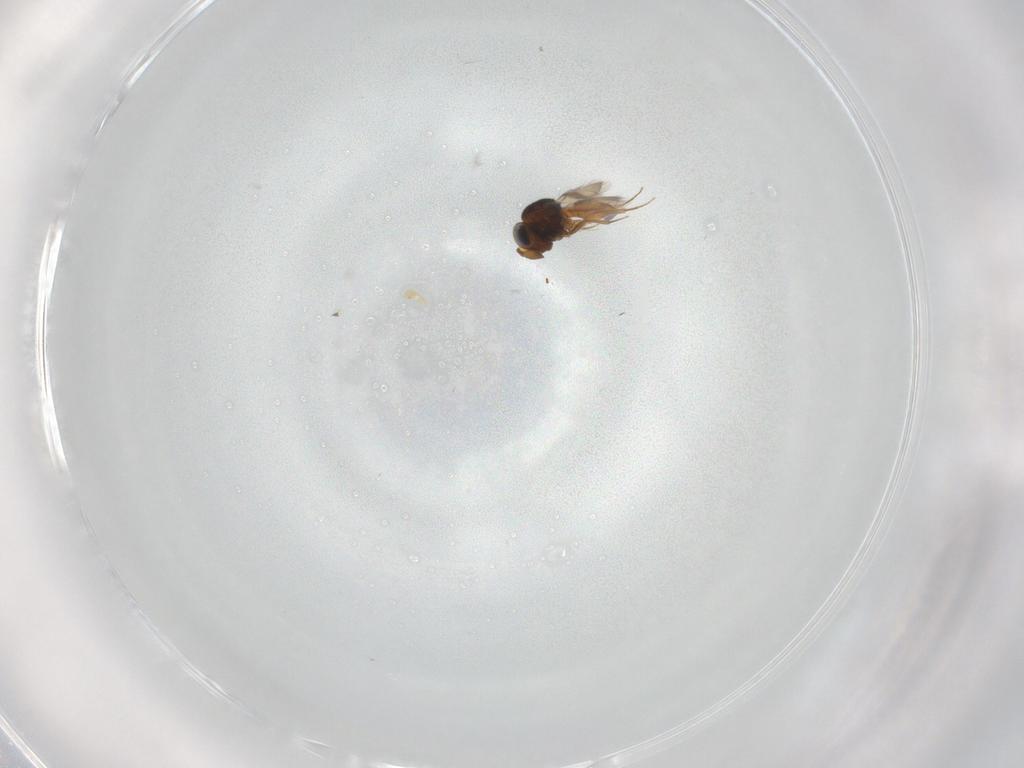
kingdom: Animalia
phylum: Arthropoda
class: Insecta
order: Hymenoptera
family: Scelionidae
